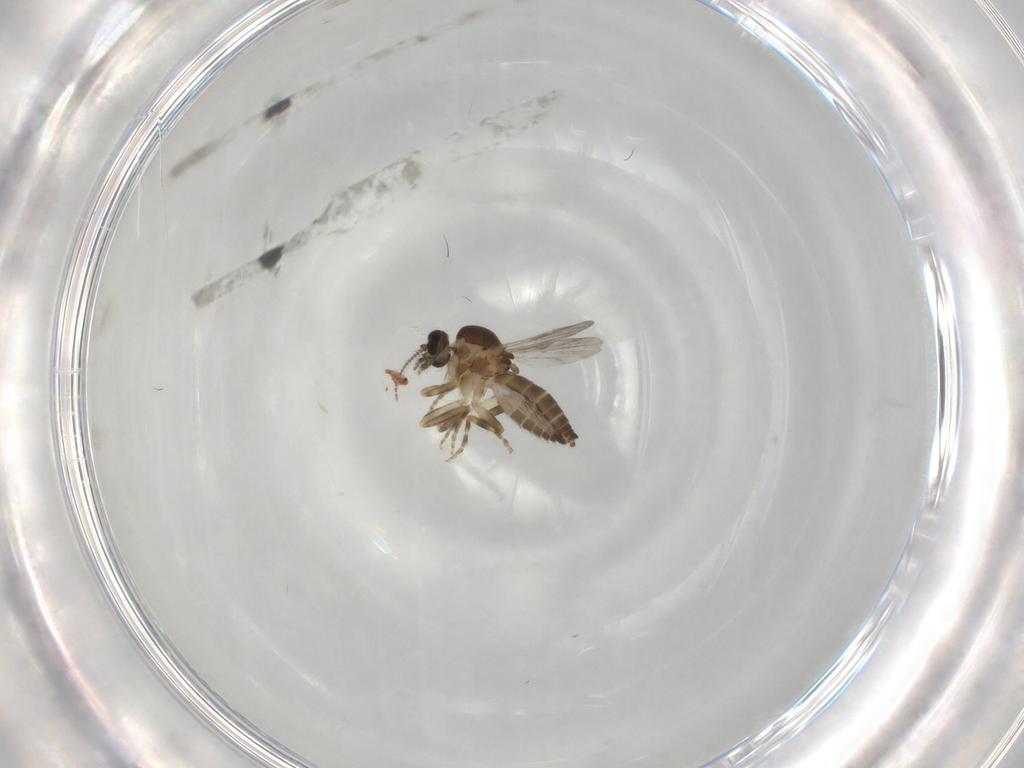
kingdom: Animalia
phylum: Arthropoda
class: Insecta
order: Diptera
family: Ceratopogonidae
